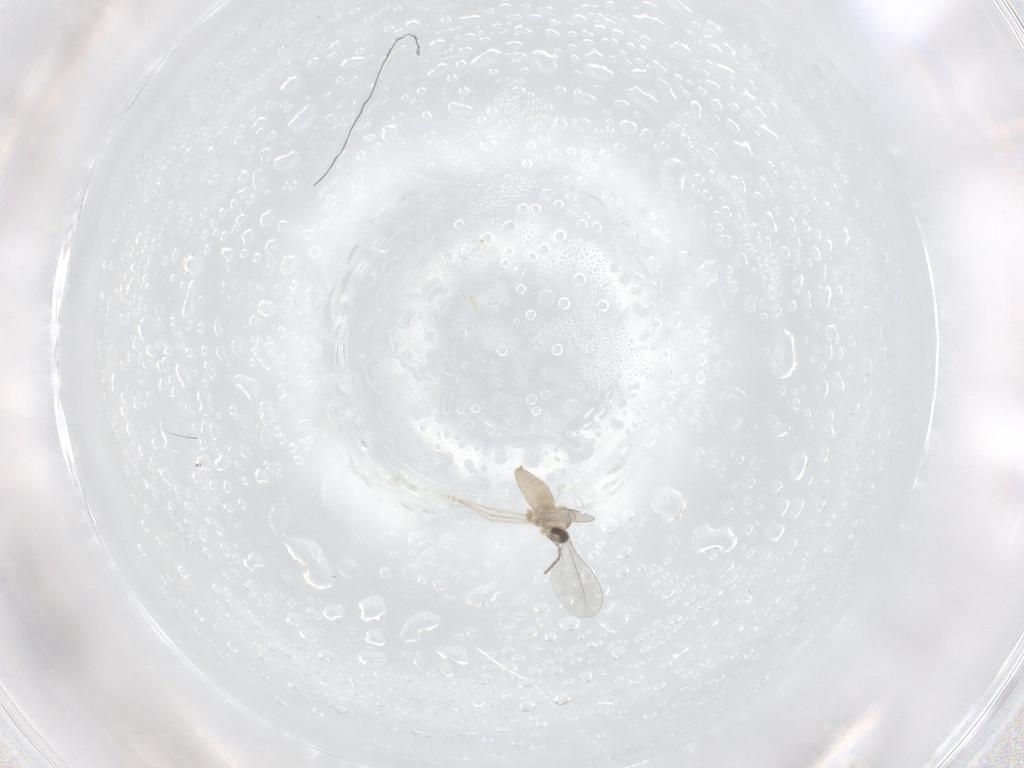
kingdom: Animalia
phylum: Arthropoda
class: Insecta
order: Diptera
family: Cecidomyiidae
